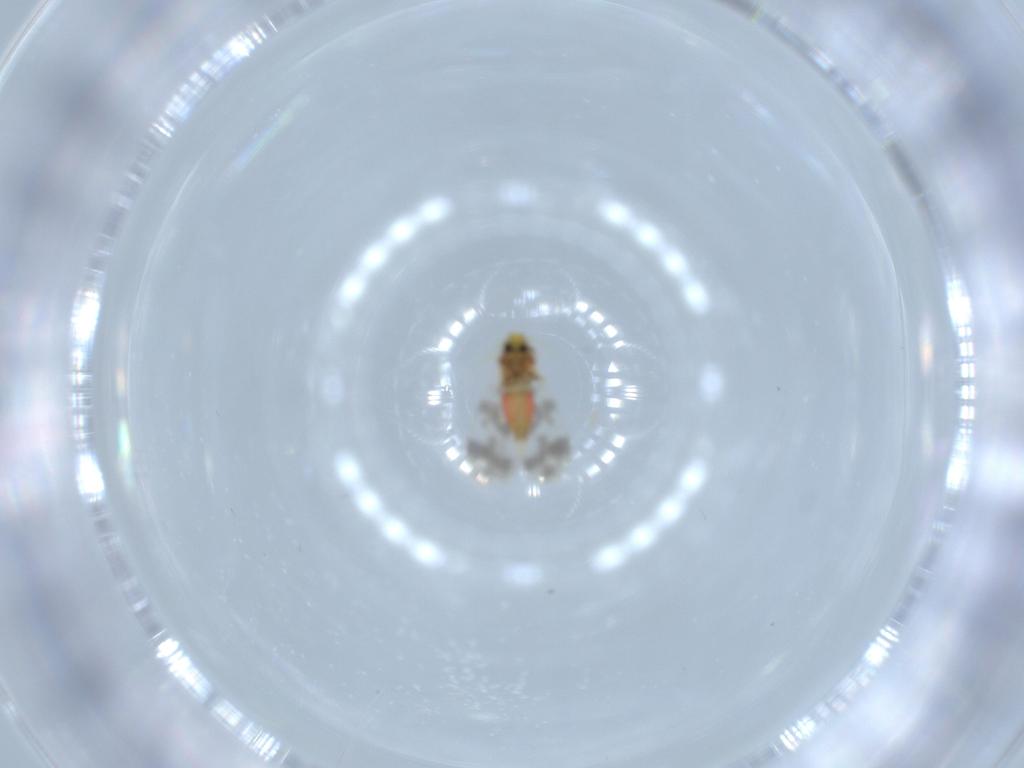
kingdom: Animalia
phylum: Arthropoda
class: Insecta
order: Hemiptera
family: Aleyrodidae
